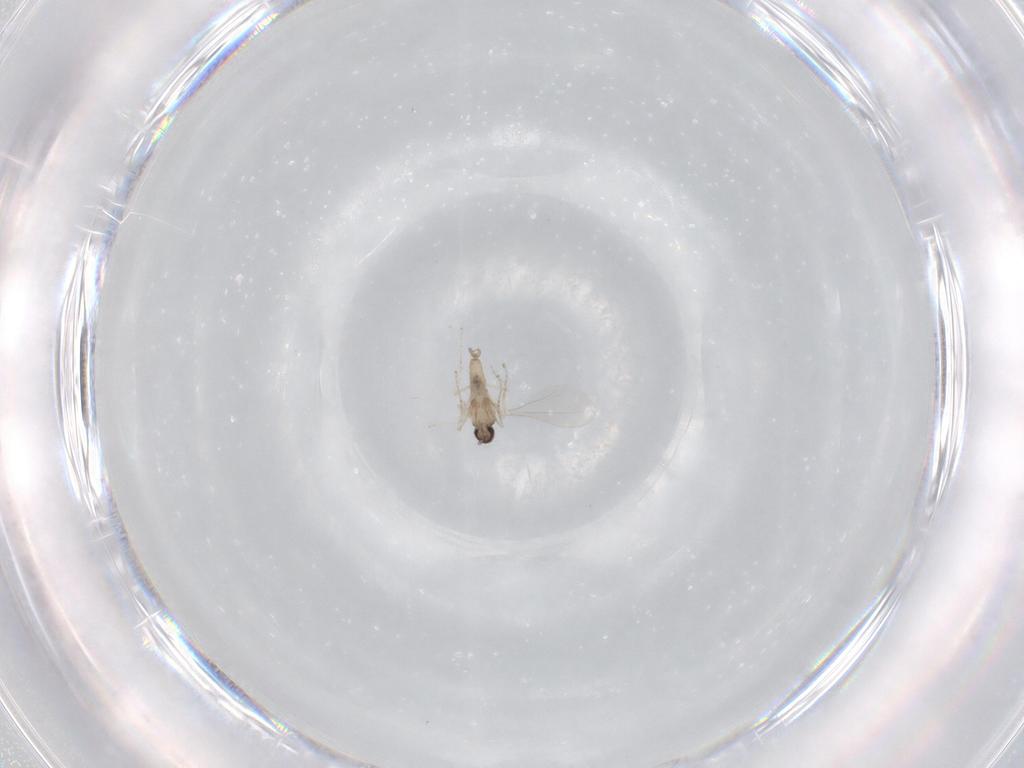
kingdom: Animalia
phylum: Arthropoda
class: Insecta
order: Diptera
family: Cecidomyiidae
